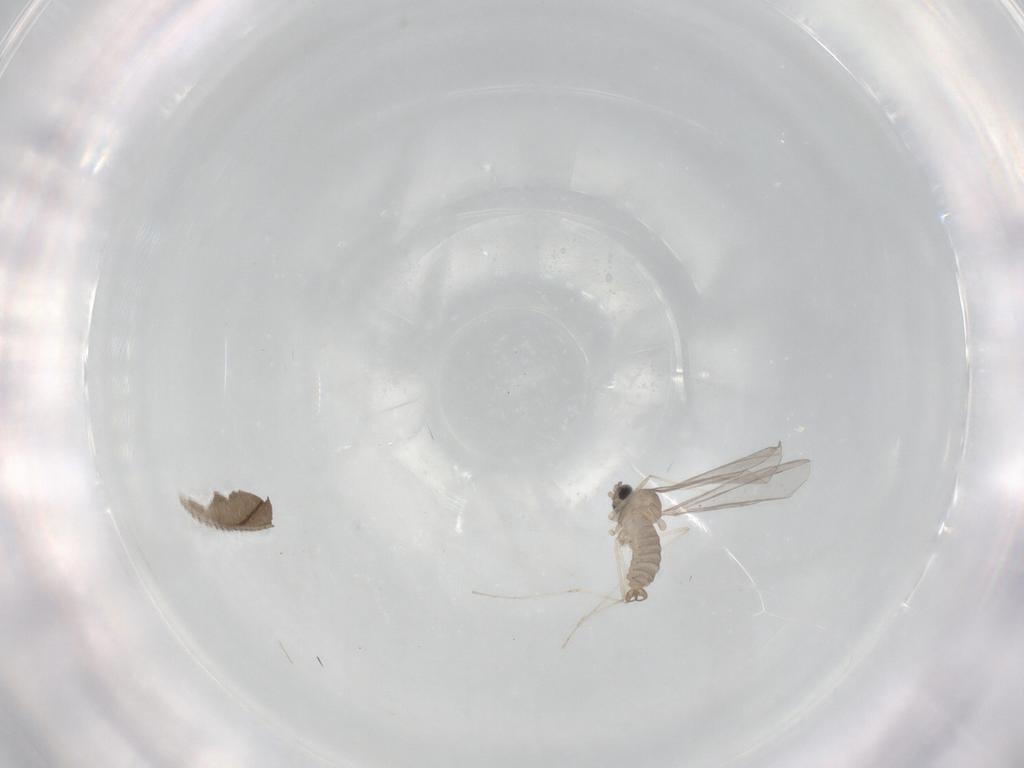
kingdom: Animalia
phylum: Arthropoda
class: Insecta
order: Diptera
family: Cecidomyiidae
